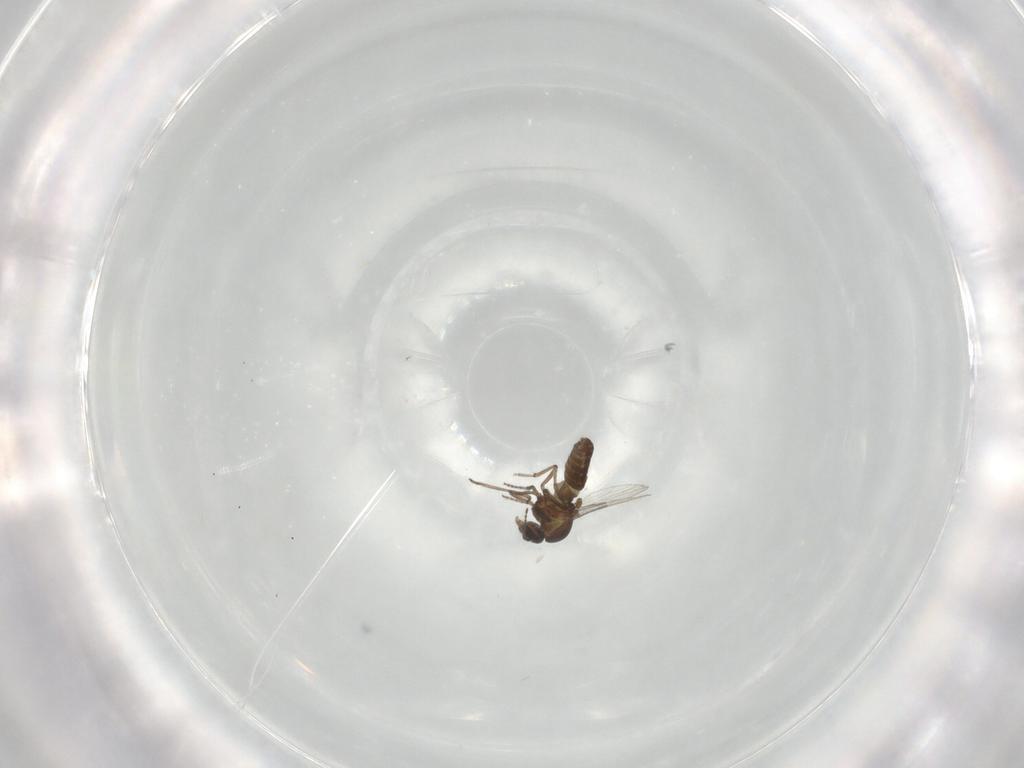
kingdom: Animalia
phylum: Arthropoda
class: Insecta
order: Diptera
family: Ceratopogonidae
